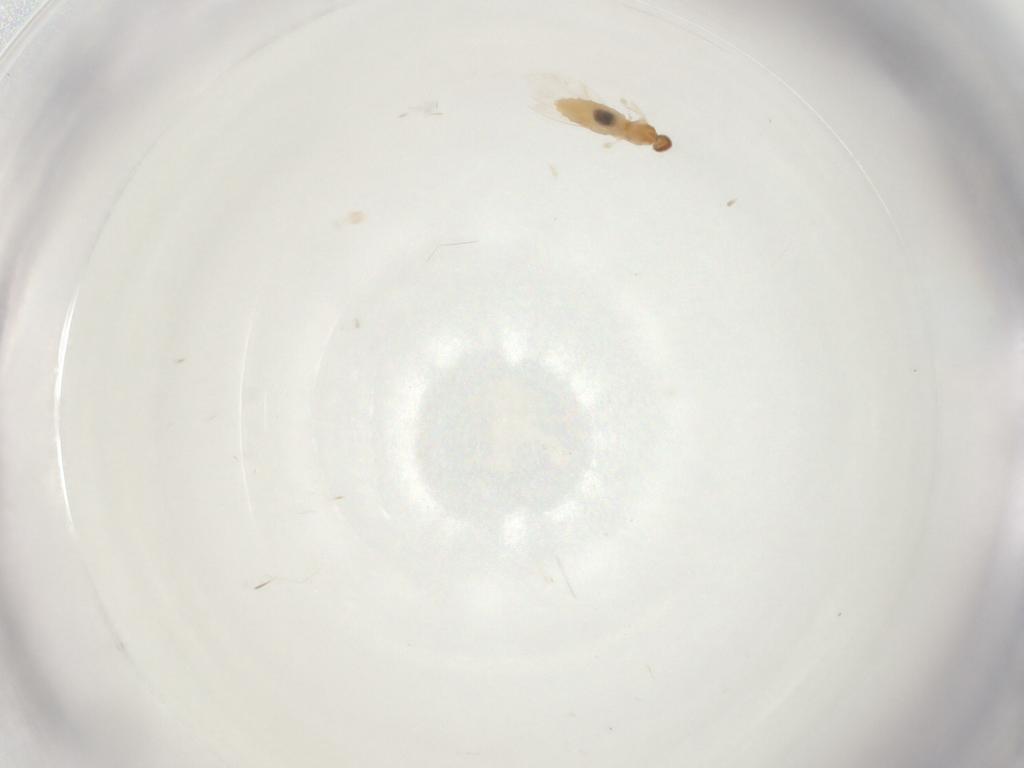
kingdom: Animalia
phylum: Arthropoda
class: Insecta
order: Diptera
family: Cecidomyiidae
